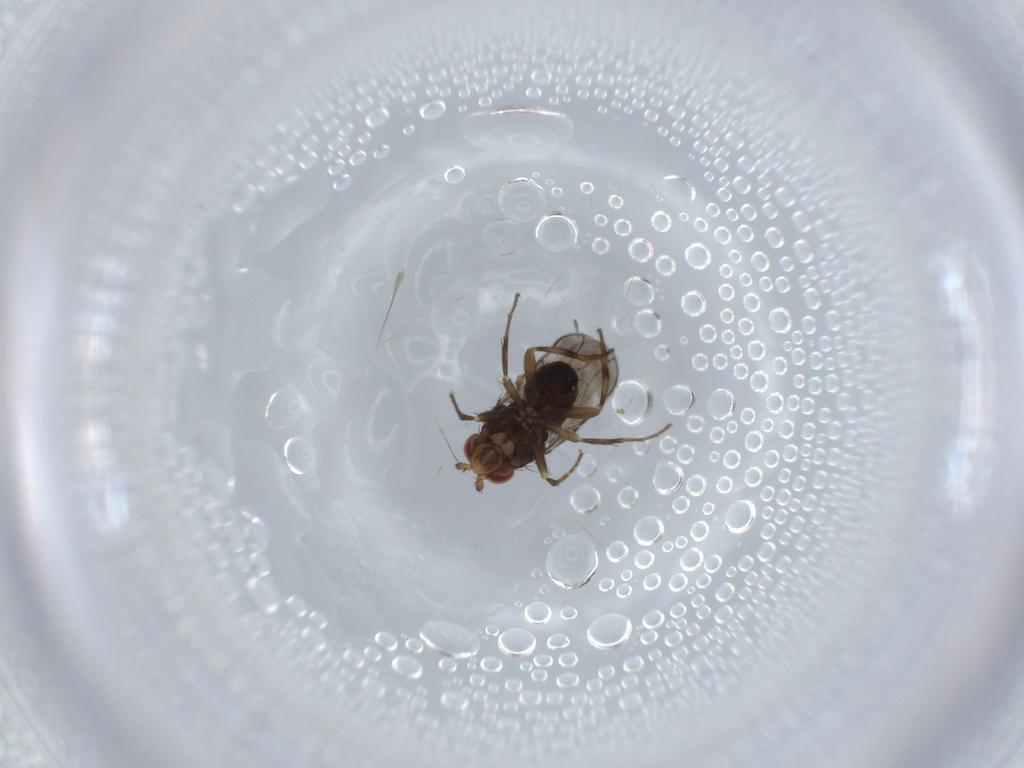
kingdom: Animalia
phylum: Arthropoda
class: Insecta
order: Diptera
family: Sphaeroceridae
